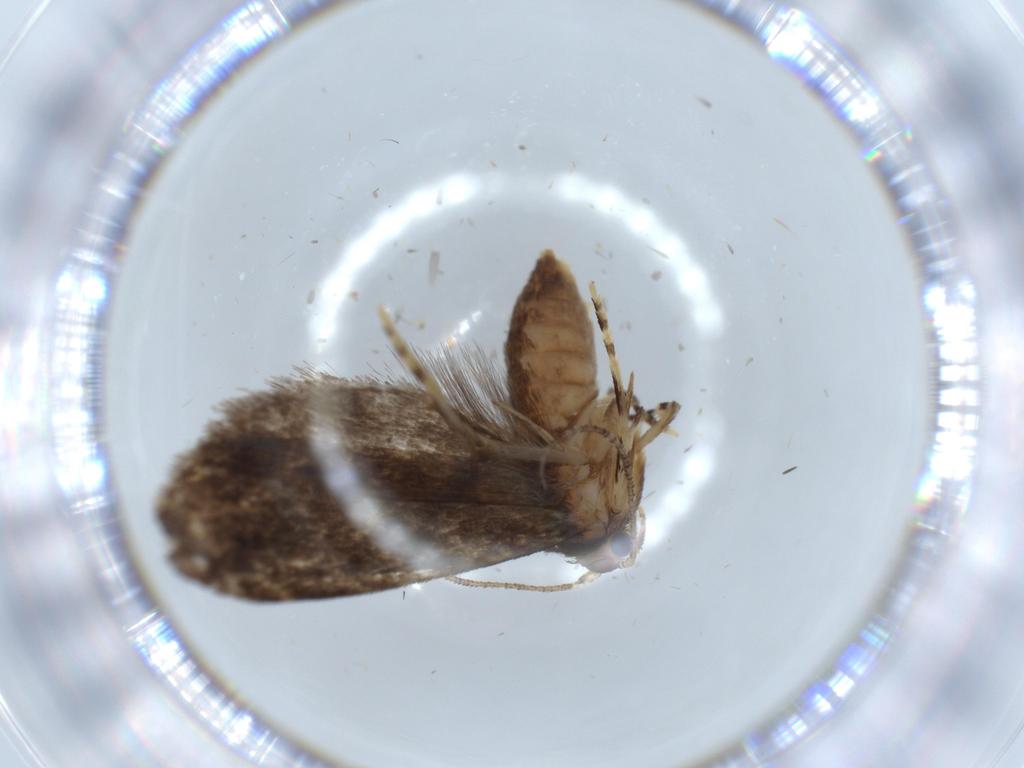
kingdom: Animalia
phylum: Arthropoda
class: Insecta
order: Lepidoptera
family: Tineidae
